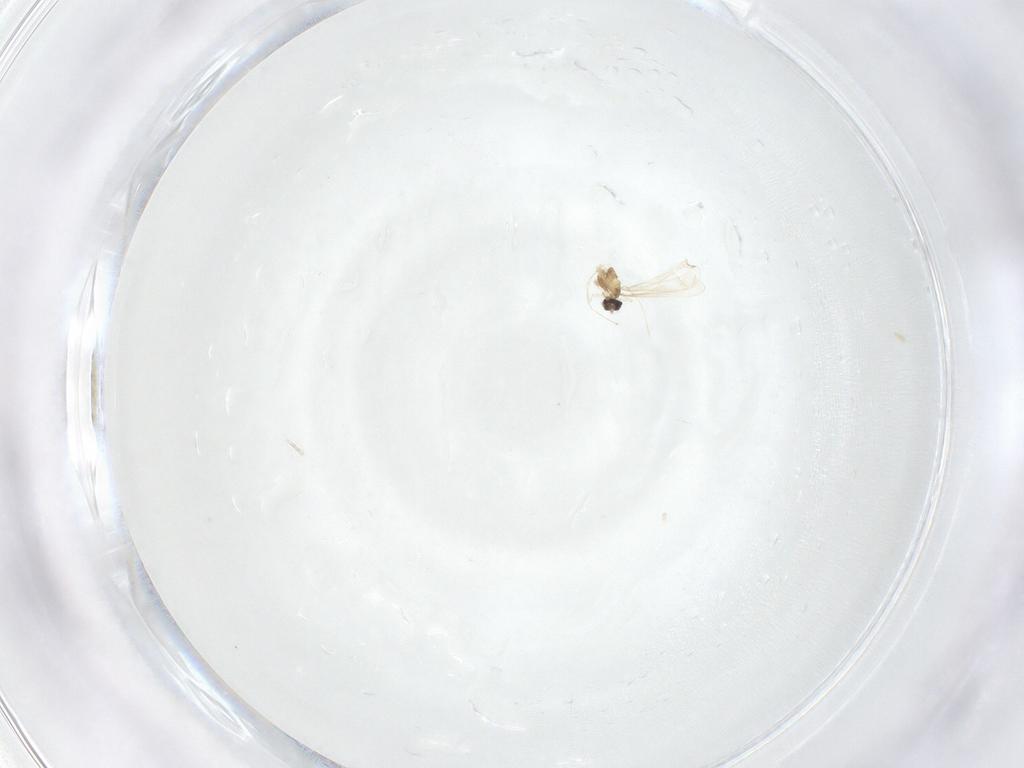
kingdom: Animalia
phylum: Arthropoda
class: Insecta
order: Diptera
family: Cecidomyiidae
